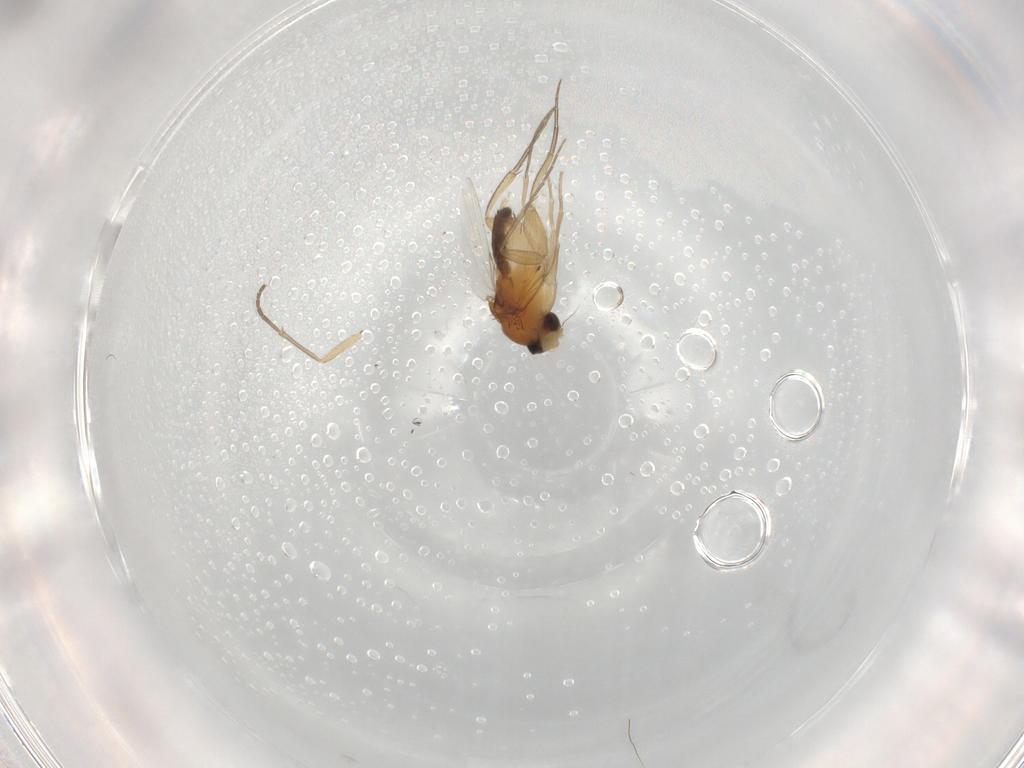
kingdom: Animalia
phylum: Arthropoda
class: Insecta
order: Diptera
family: Cecidomyiidae
